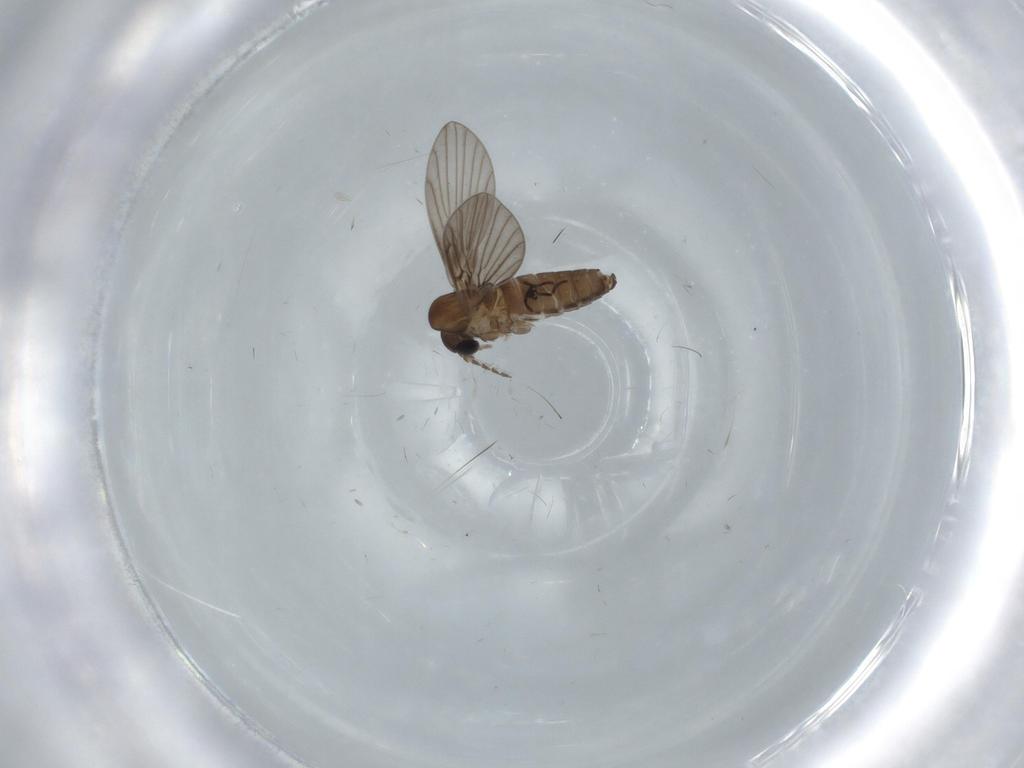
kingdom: Animalia
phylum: Arthropoda
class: Insecta
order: Diptera
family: Psychodidae
